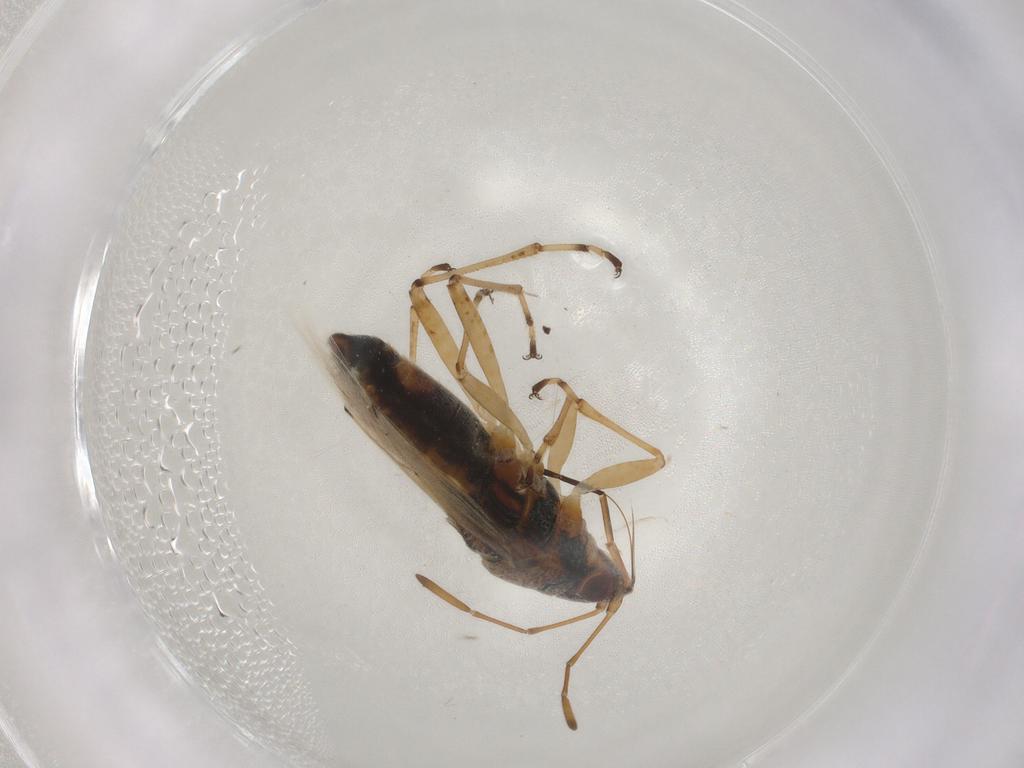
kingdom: Animalia
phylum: Arthropoda
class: Insecta
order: Hemiptera
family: Lygaeidae
